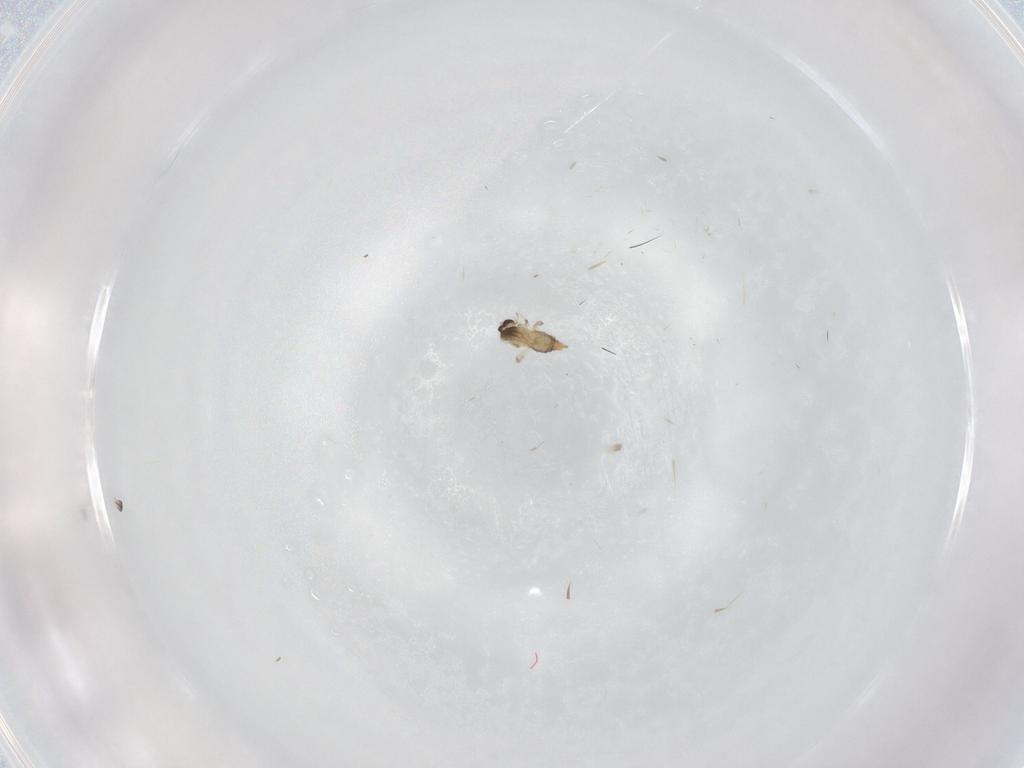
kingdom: Animalia
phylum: Arthropoda
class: Insecta
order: Diptera
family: Cecidomyiidae
